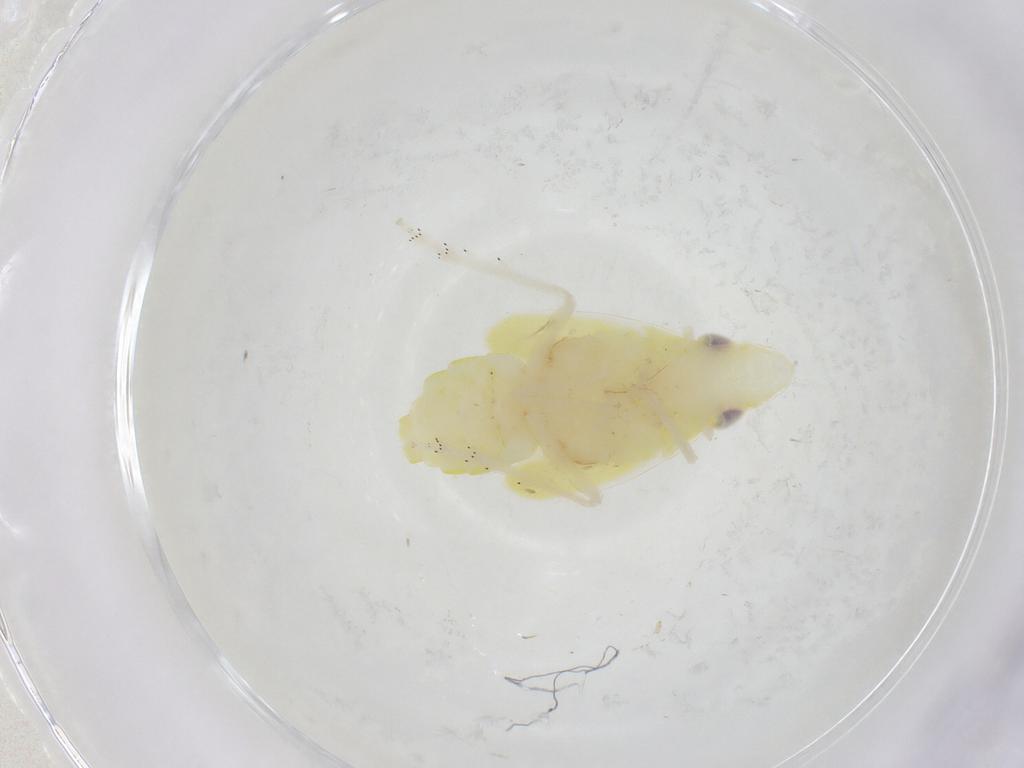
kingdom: Animalia
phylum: Arthropoda
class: Insecta
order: Hemiptera
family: Tropiduchidae
